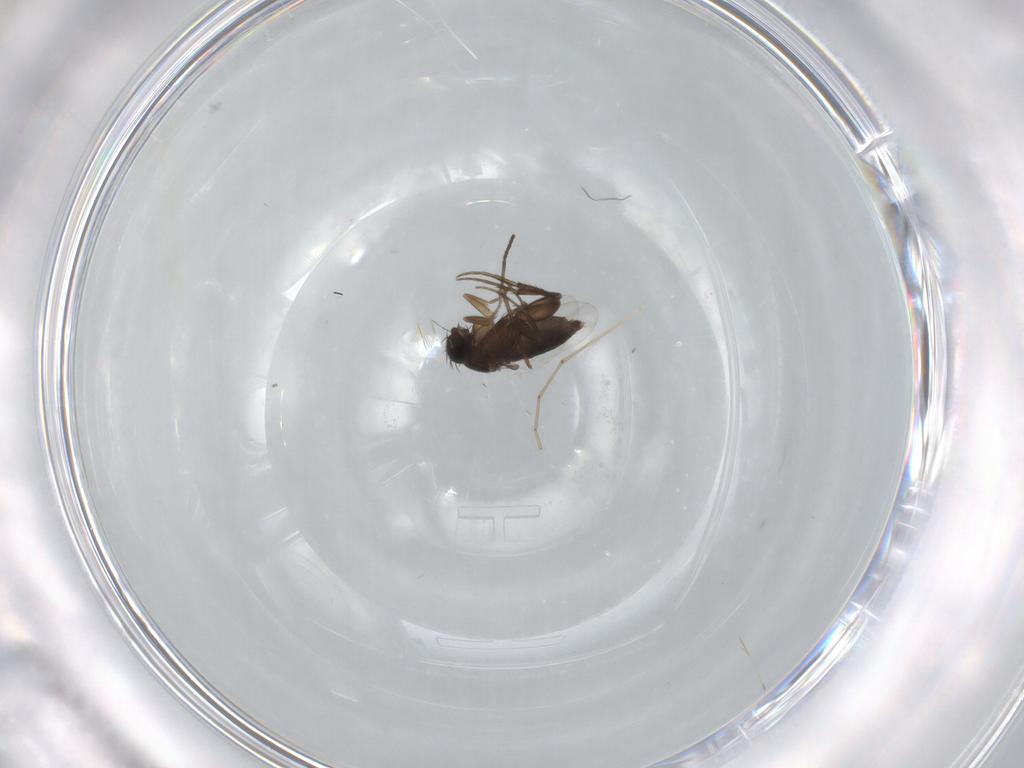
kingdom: Animalia
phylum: Arthropoda
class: Insecta
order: Diptera
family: Phoridae
